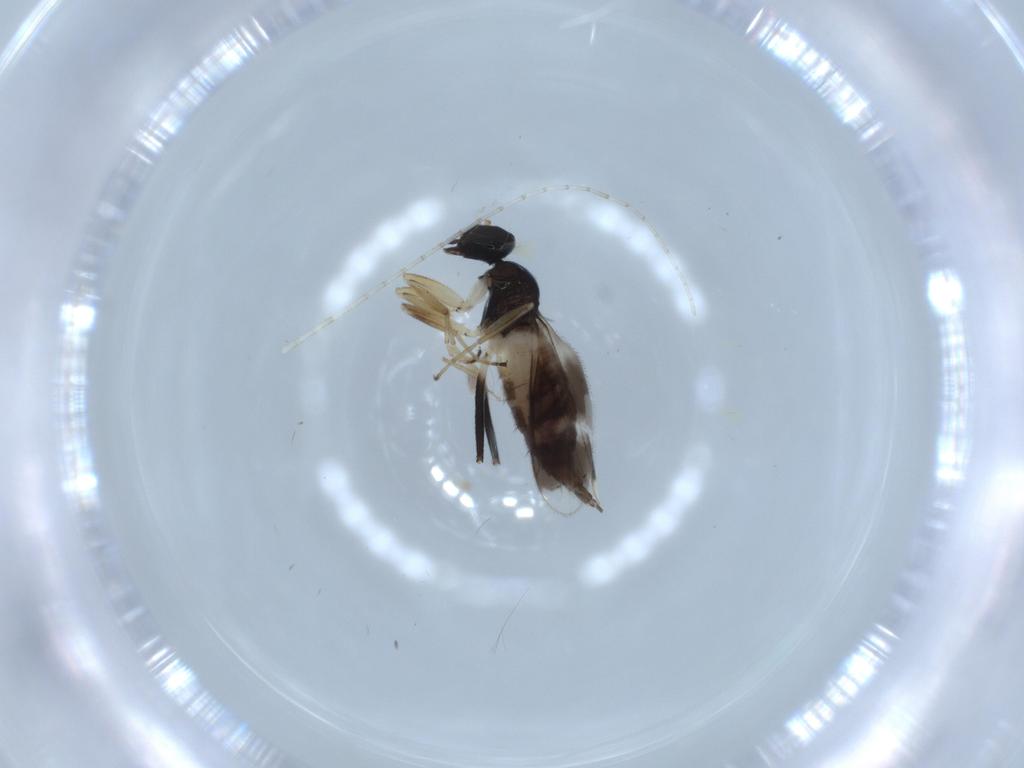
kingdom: Animalia
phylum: Arthropoda
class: Insecta
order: Diptera
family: Hybotidae
